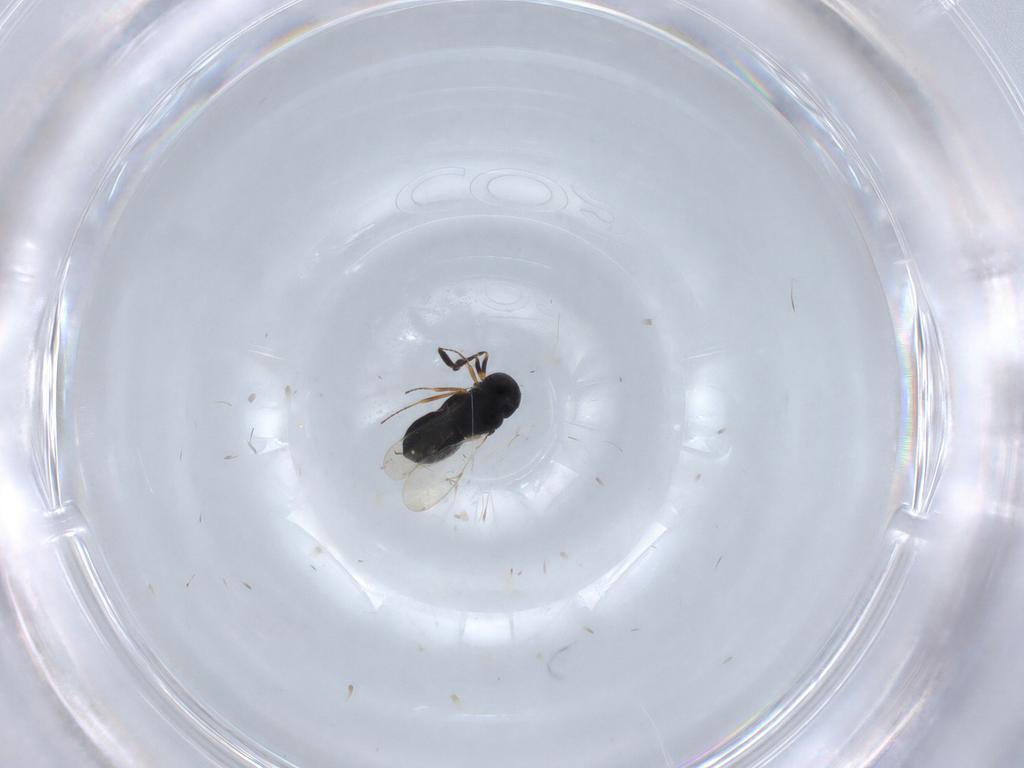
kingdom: Animalia
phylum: Arthropoda
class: Insecta
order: Hymenoptera
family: Scelionidae
